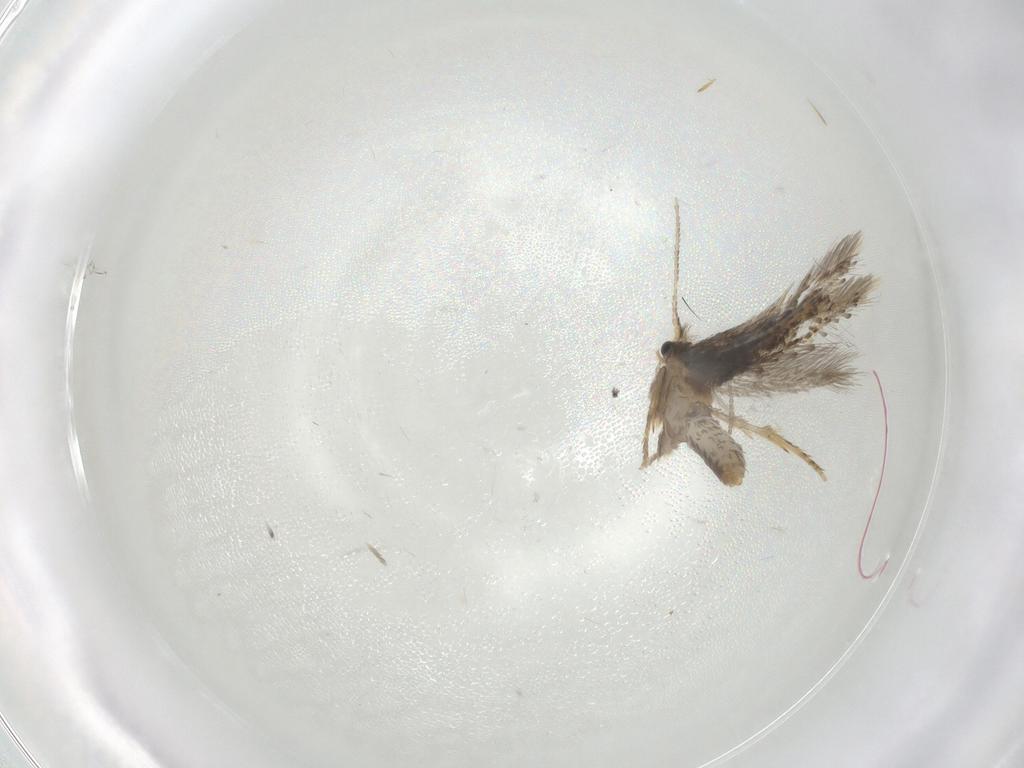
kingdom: Animalia
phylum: Arthropoda
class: Insecta
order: Lepidoptera
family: Nepticulidae
